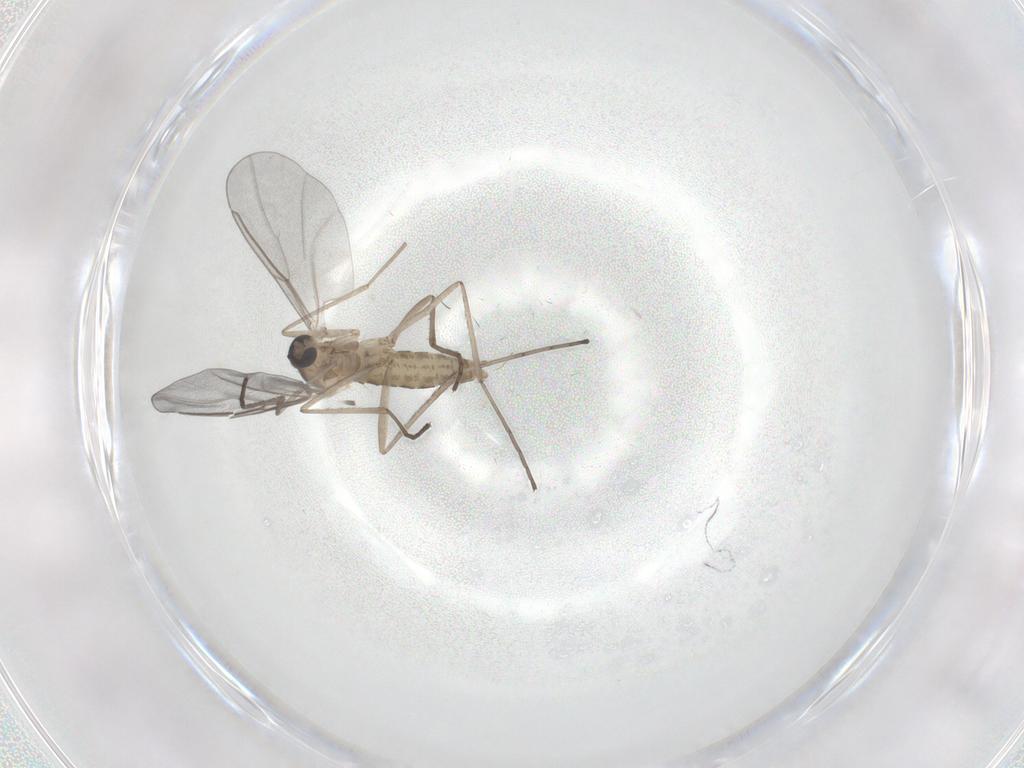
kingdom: Animalia
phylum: Arthropoda
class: Insecta
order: Diptera
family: Cecidomyiidae
